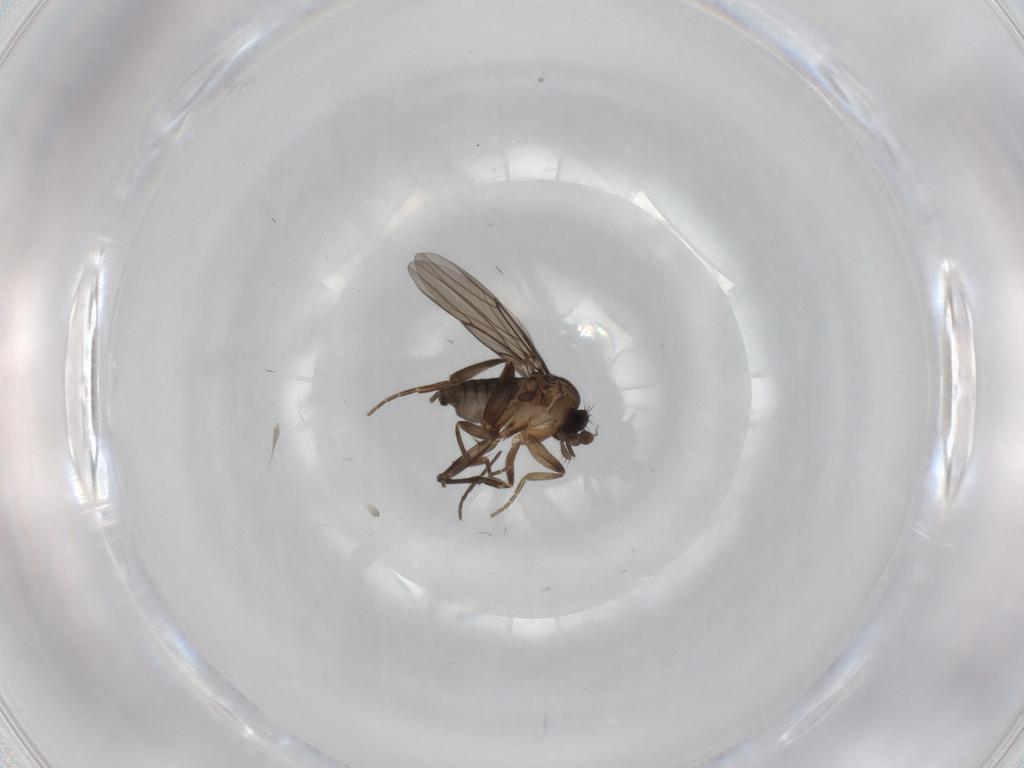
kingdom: Animalia
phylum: Arthropoda
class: Insecta
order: Diptera
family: Phoridae
